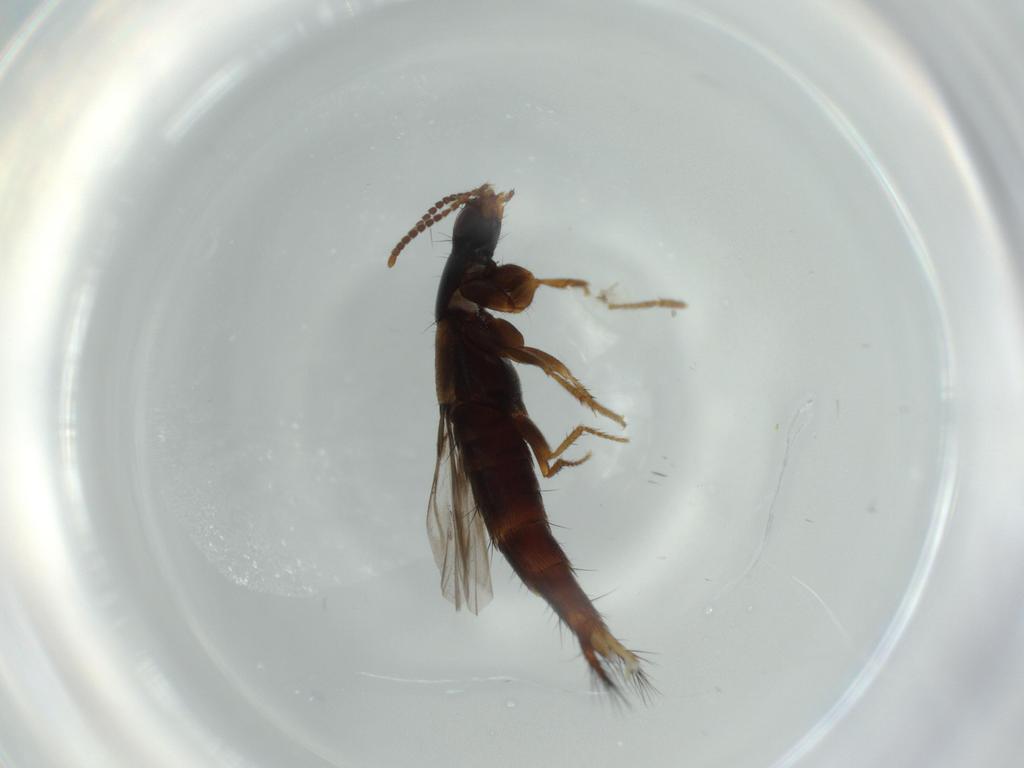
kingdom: Animalia
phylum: Arthropoda
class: Insecta
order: Coleoptera
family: Staphylinidae
